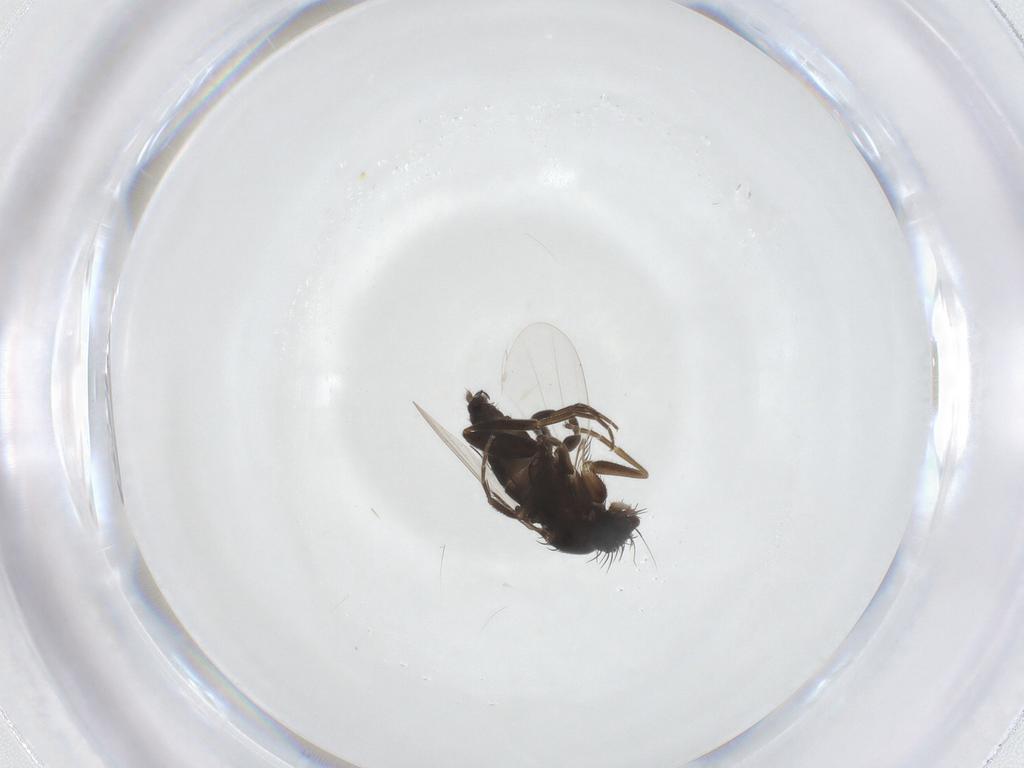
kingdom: Animalia
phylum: Arthropoda
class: Insecta
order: Diptera
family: Phoridae
